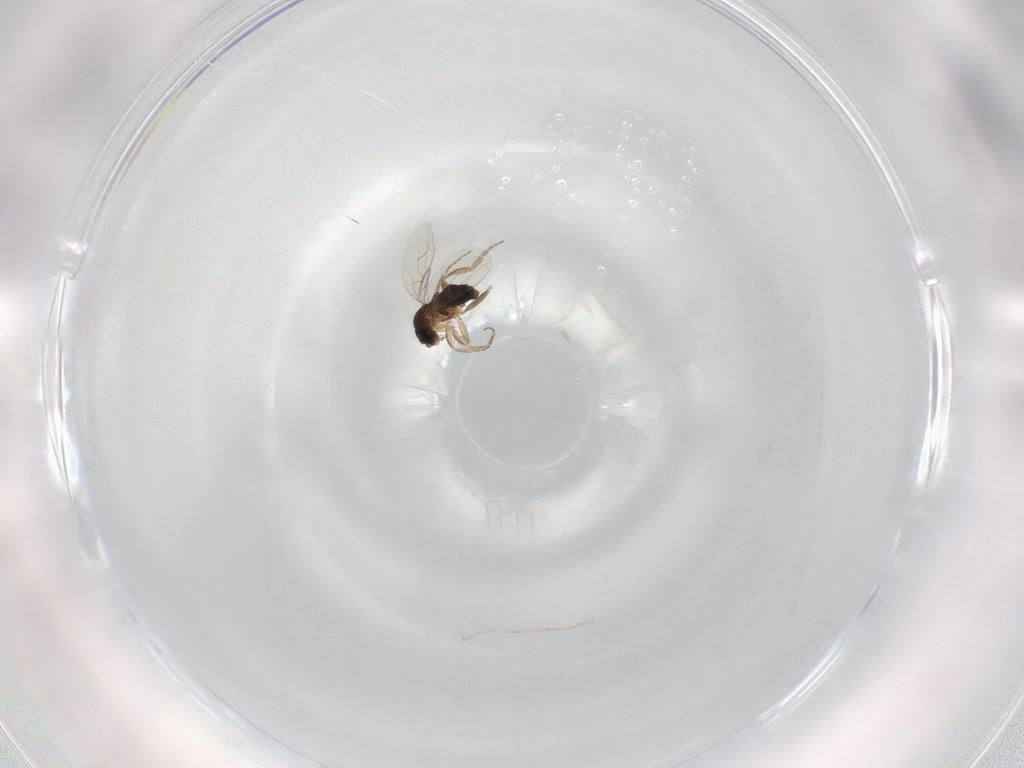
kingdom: Animalia
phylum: Arthropoda
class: Insecta
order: Diptera
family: Phoridae
